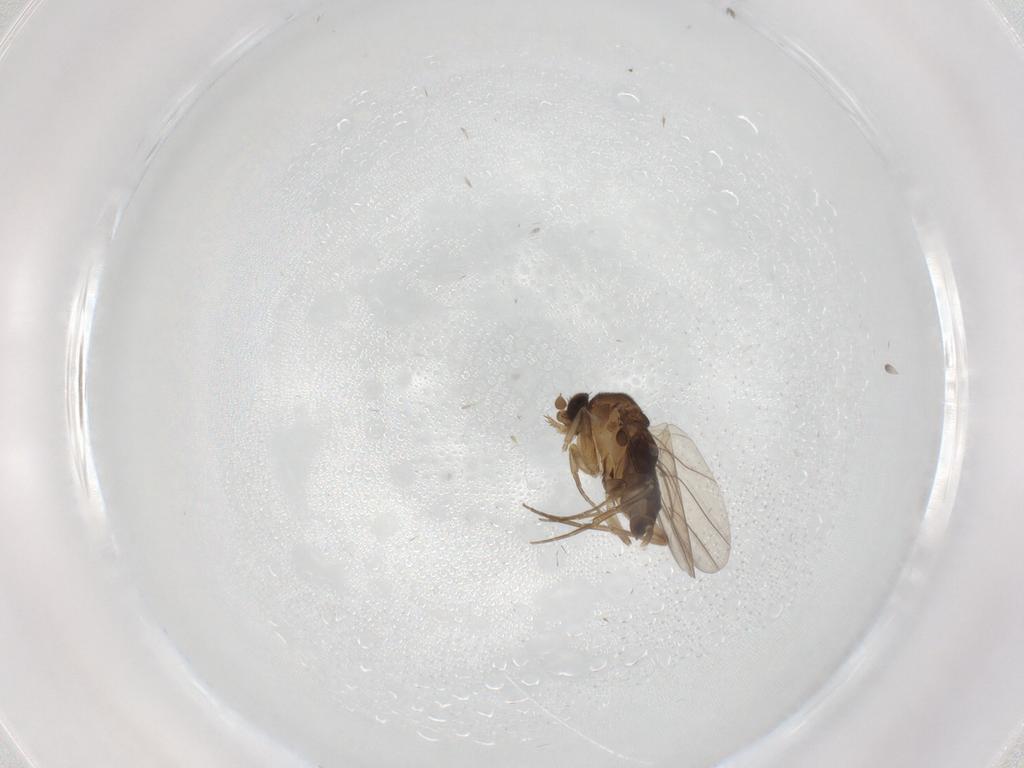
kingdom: Animalia
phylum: Arthropoda
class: Insecta
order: Diptera
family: Phoridae
